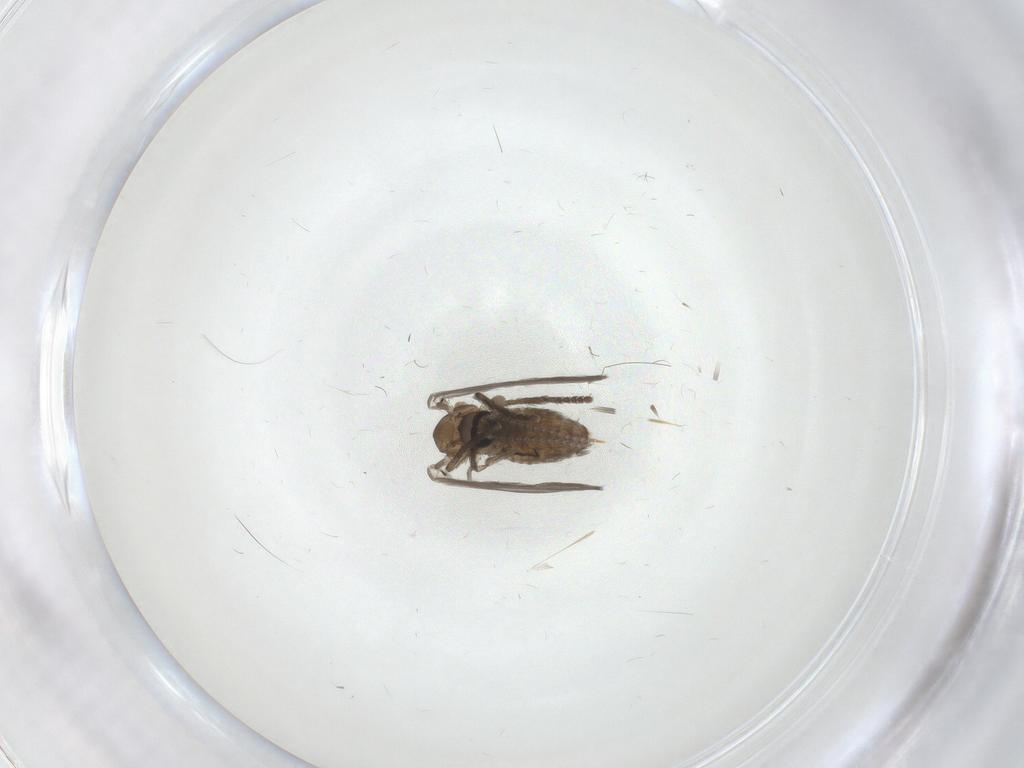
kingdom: Animalia
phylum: Arthropoda
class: Insecta
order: Diptera
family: Psychodidae
